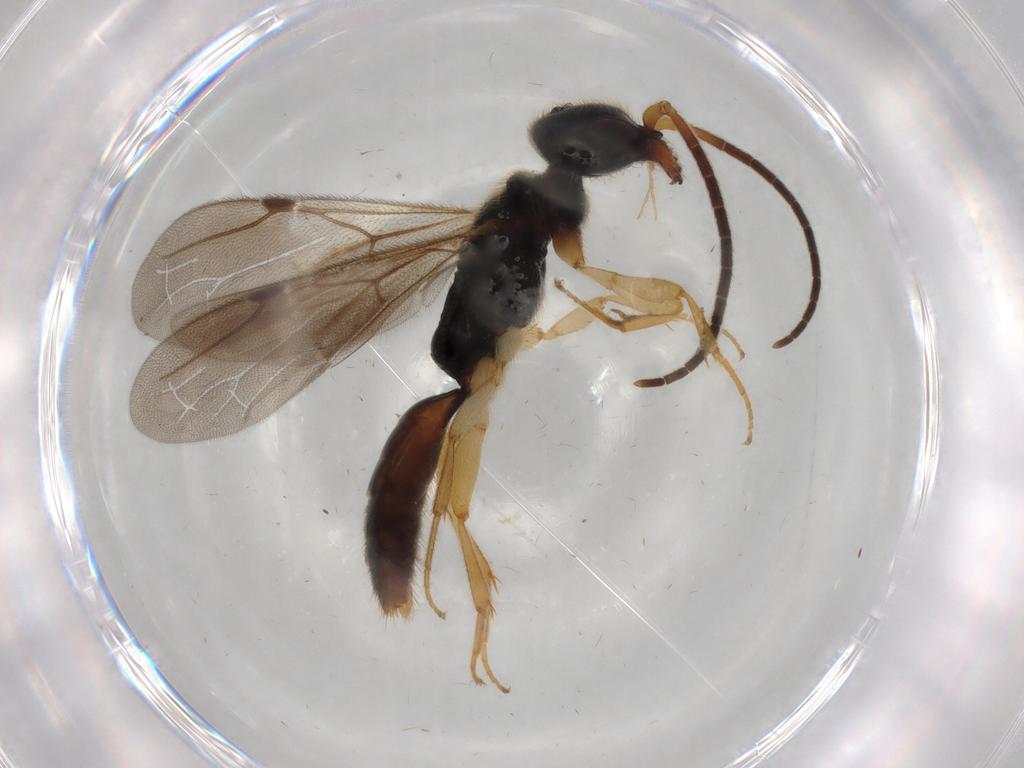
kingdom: Animalia
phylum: Arthropoda
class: Insecta
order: Hymenoptera
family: Bethylidae
